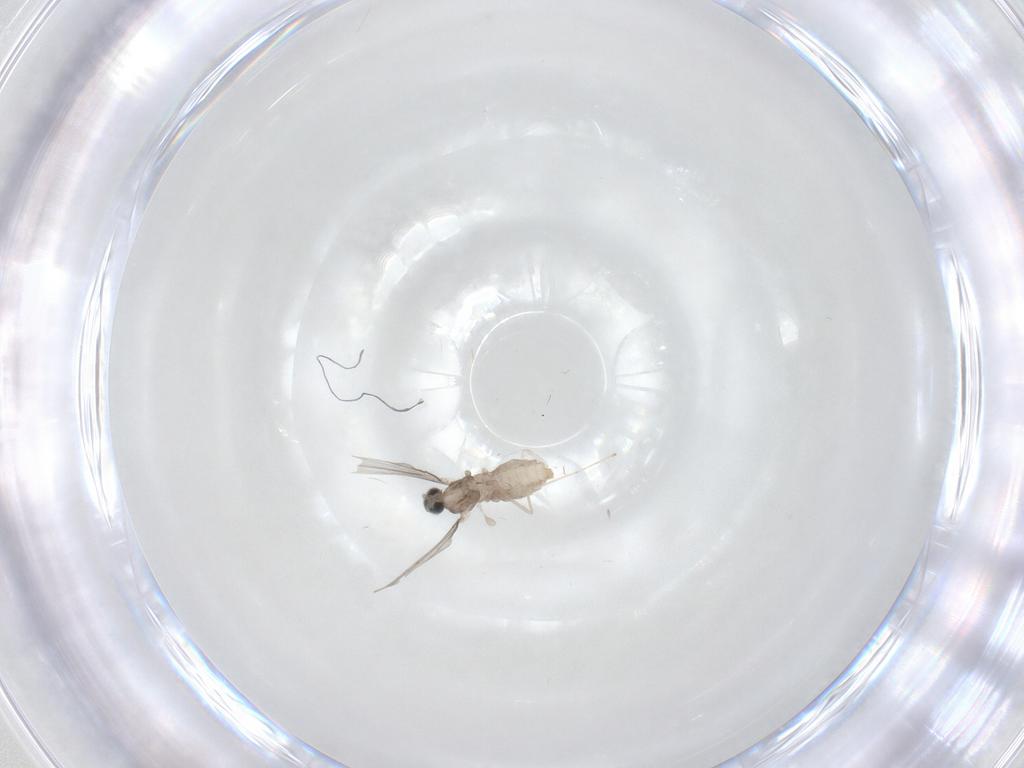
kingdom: Animalia
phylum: Arthropoda
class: Insecta
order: Diptera
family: Cecidomyiidae
